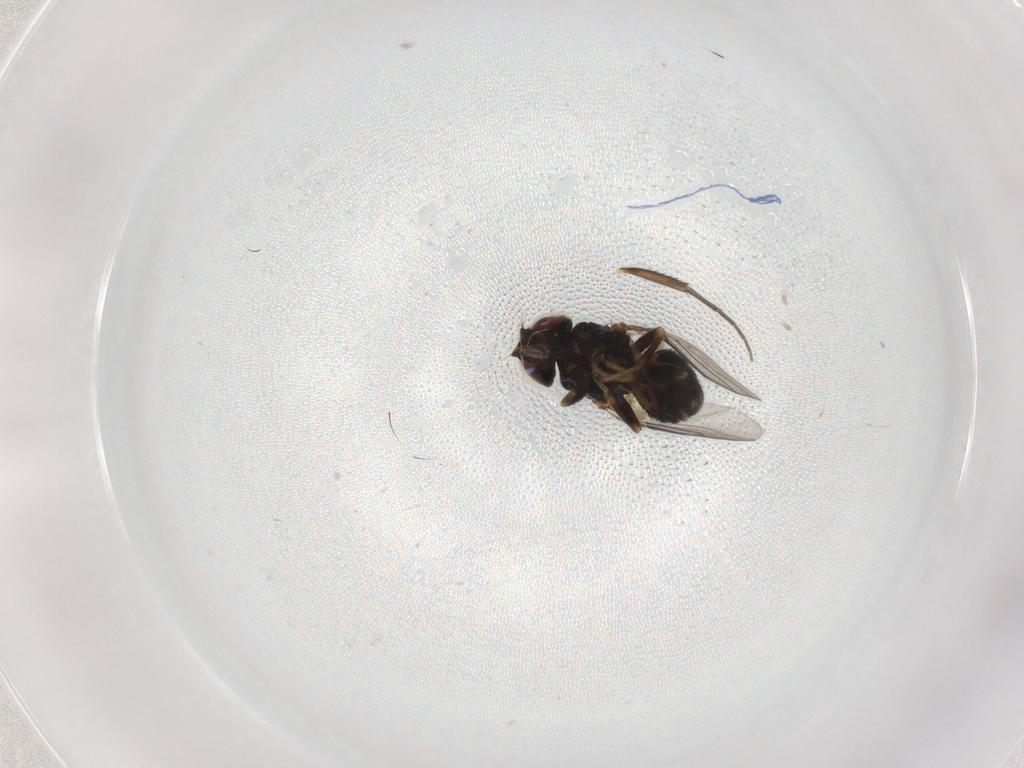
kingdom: Animalia
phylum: Arthropoda
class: Insecta
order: Diptera
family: Chloropidae
